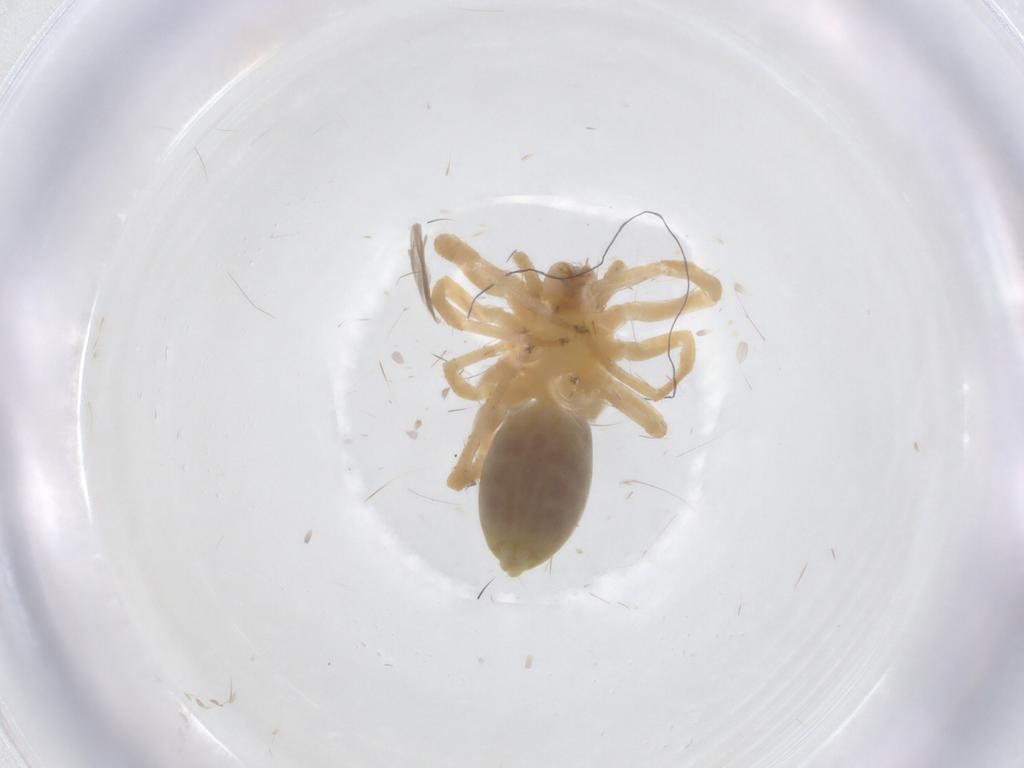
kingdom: Animalia
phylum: Arthropoda
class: Arachnida
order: Araneae
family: Anyphaenidae
